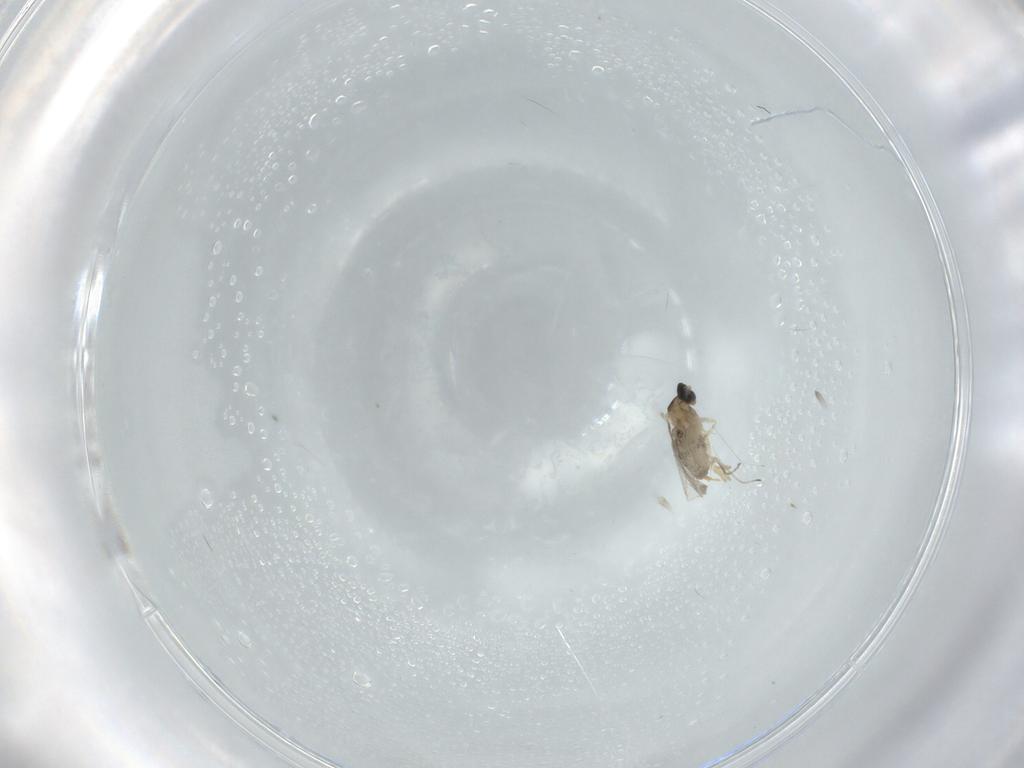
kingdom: Animalia
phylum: Arthropoda
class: Insecta
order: Diptera
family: Cecidomyiidae
